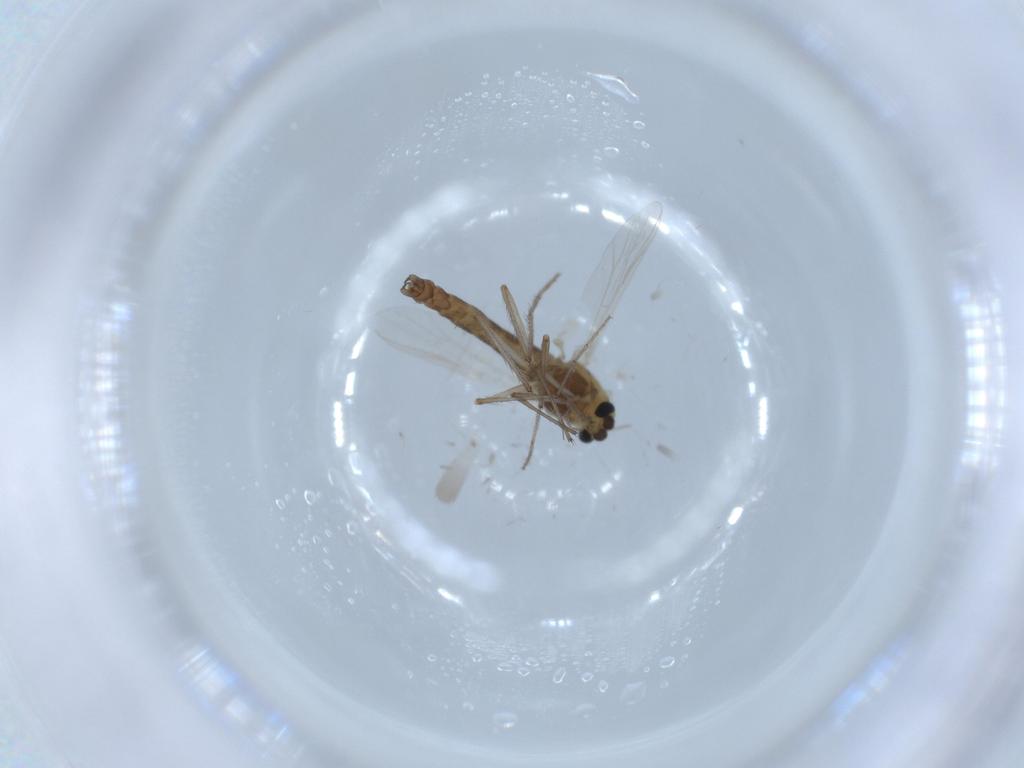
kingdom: Animalia
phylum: Arthropoda
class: Insecta
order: Diptera
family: Chironomidae
